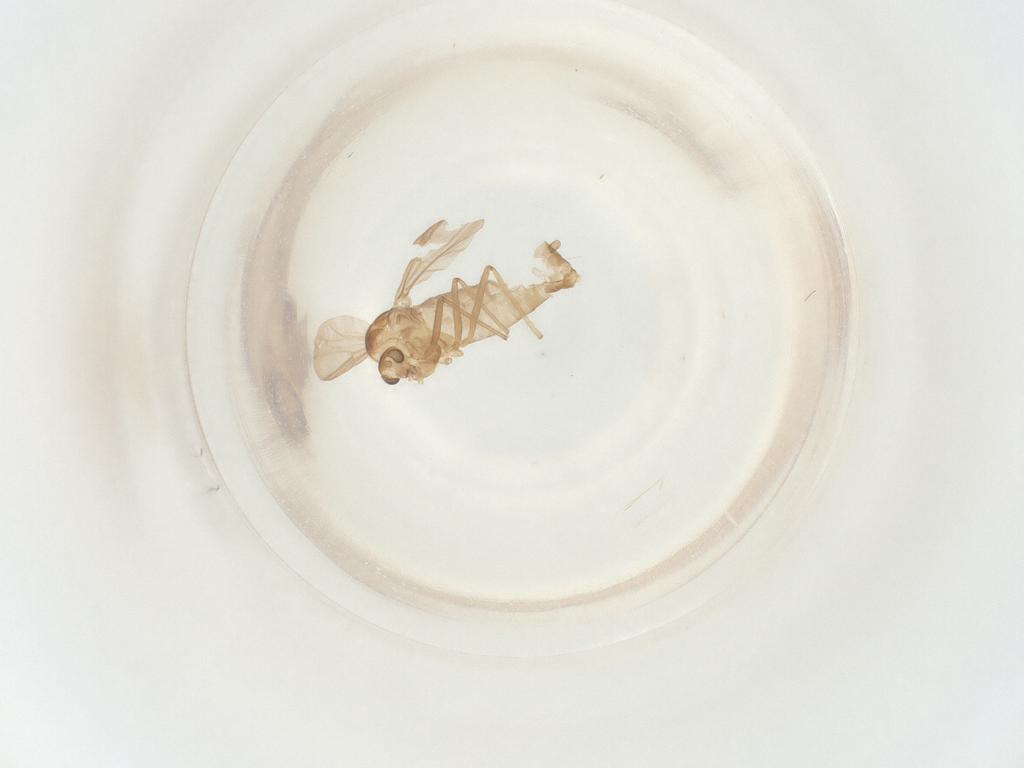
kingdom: Animalia
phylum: Arthropoda
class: Insecta
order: Diptera
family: Chironomidae
